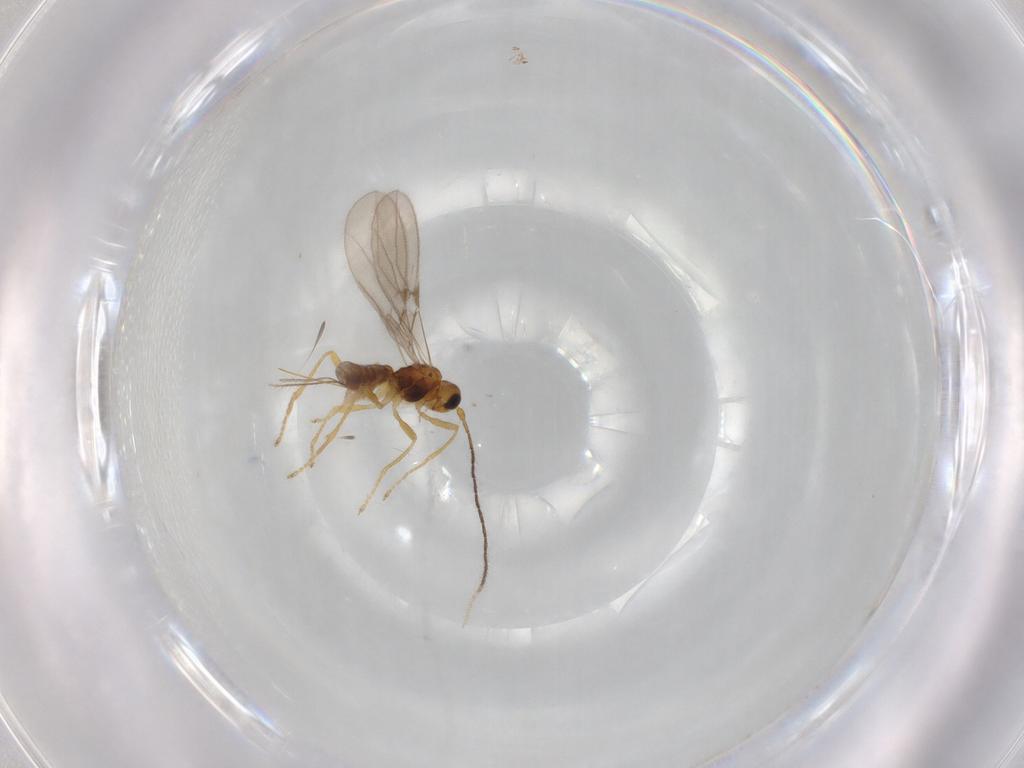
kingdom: Animalia
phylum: Arthropoda
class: Insecta
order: Hymenoptera
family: Braconidae
